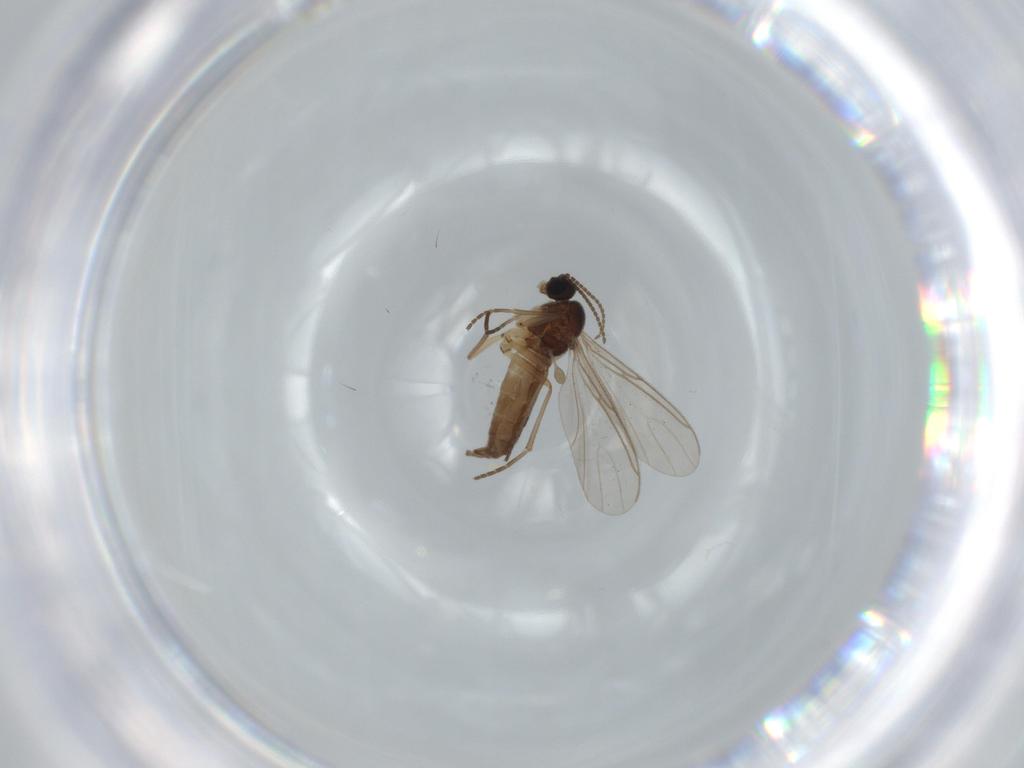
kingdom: Animalia
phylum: Arthropoda
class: Insecta
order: Diptera
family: Sciaridae
